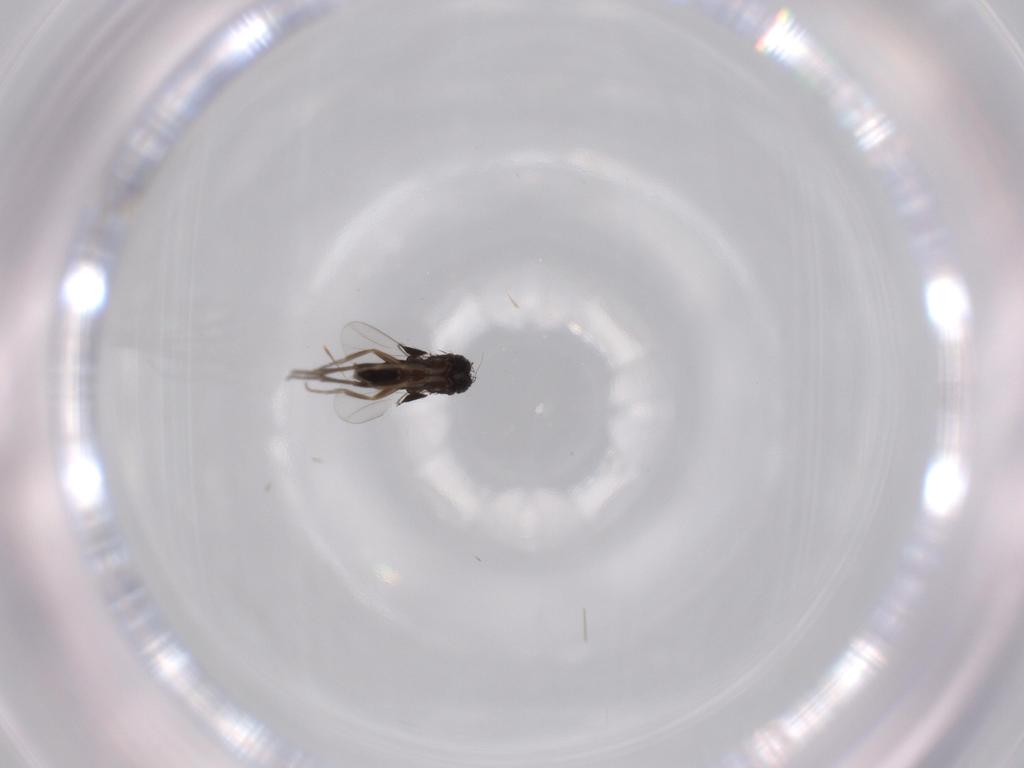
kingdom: Animalia
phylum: Arthropoda
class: Insecta
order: Diptera
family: Phoridae
